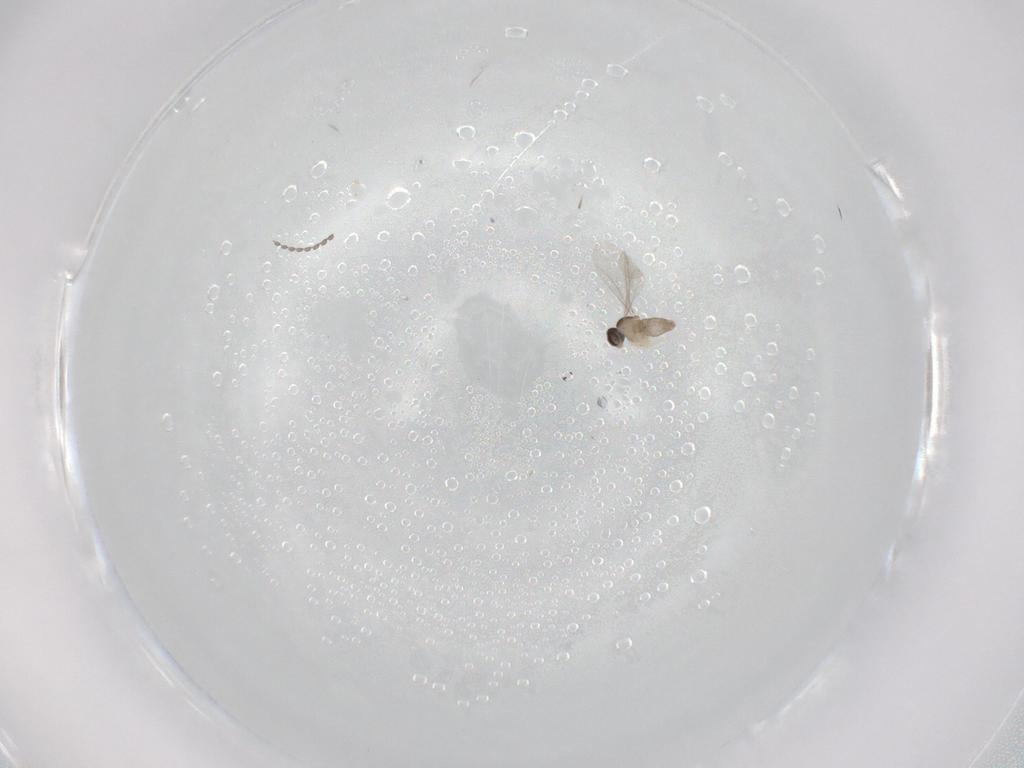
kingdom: Animalia
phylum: Arthropoda
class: Insecta
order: Diptera
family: Cecidomyiidae
